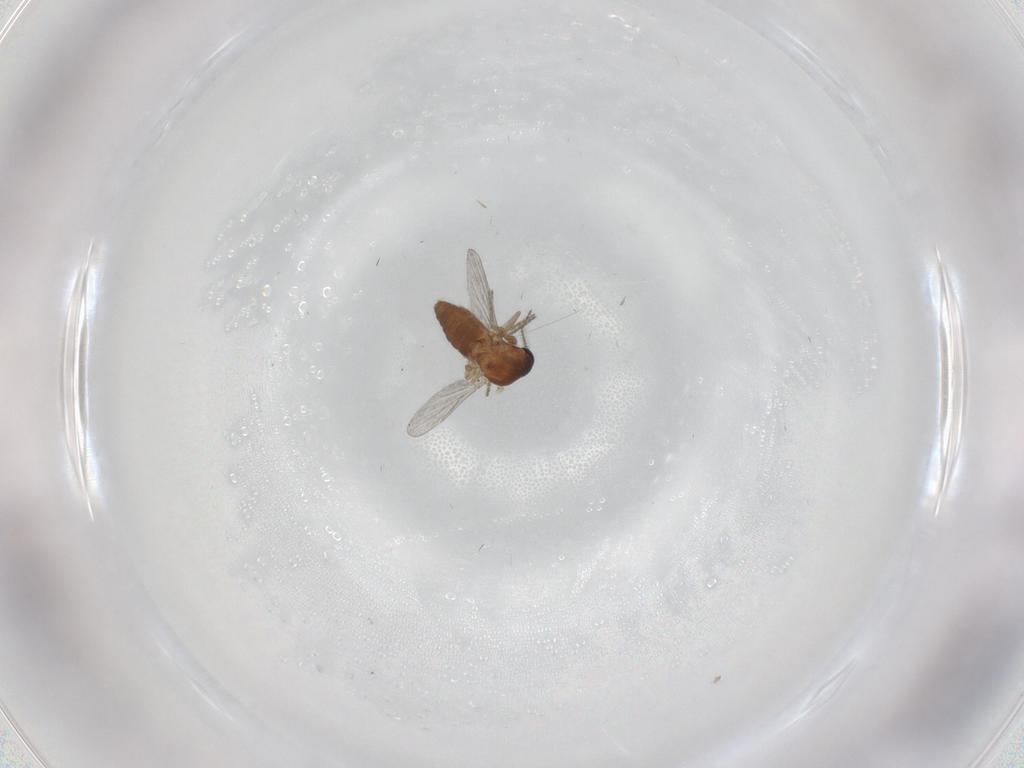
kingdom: Animalia
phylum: Arthropoda
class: Insecta
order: Diptera
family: Ceratopogonidae
